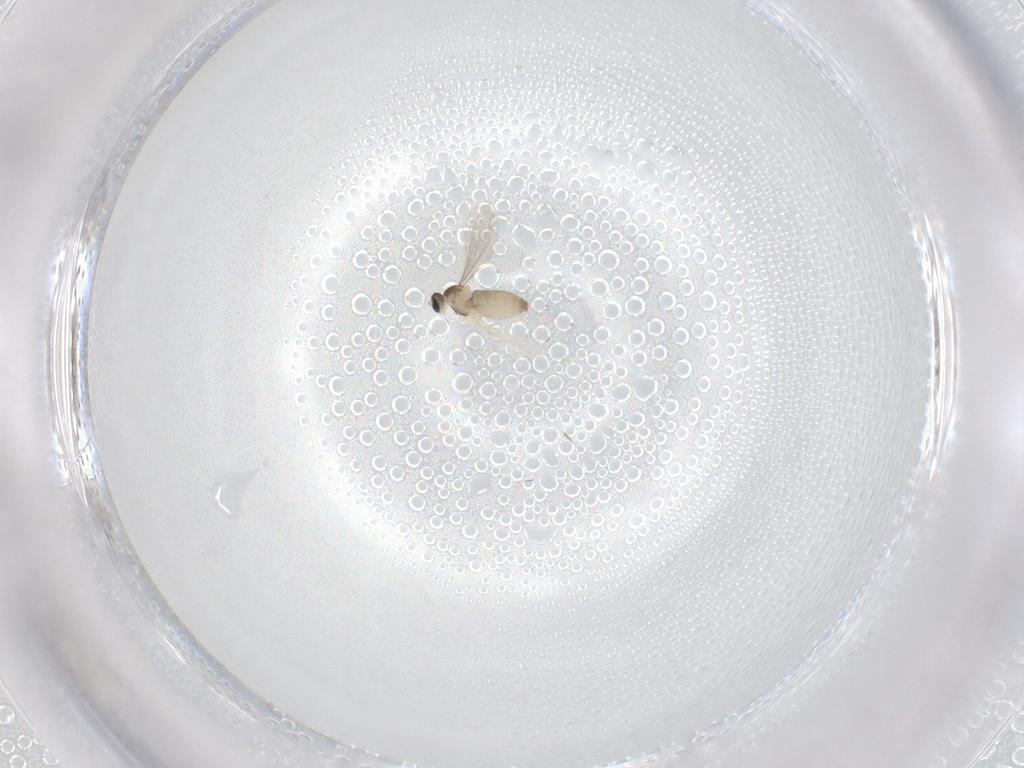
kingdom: Animalia
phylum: Arthropoda
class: Insecta
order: Diptera
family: Ceratopogonidae
